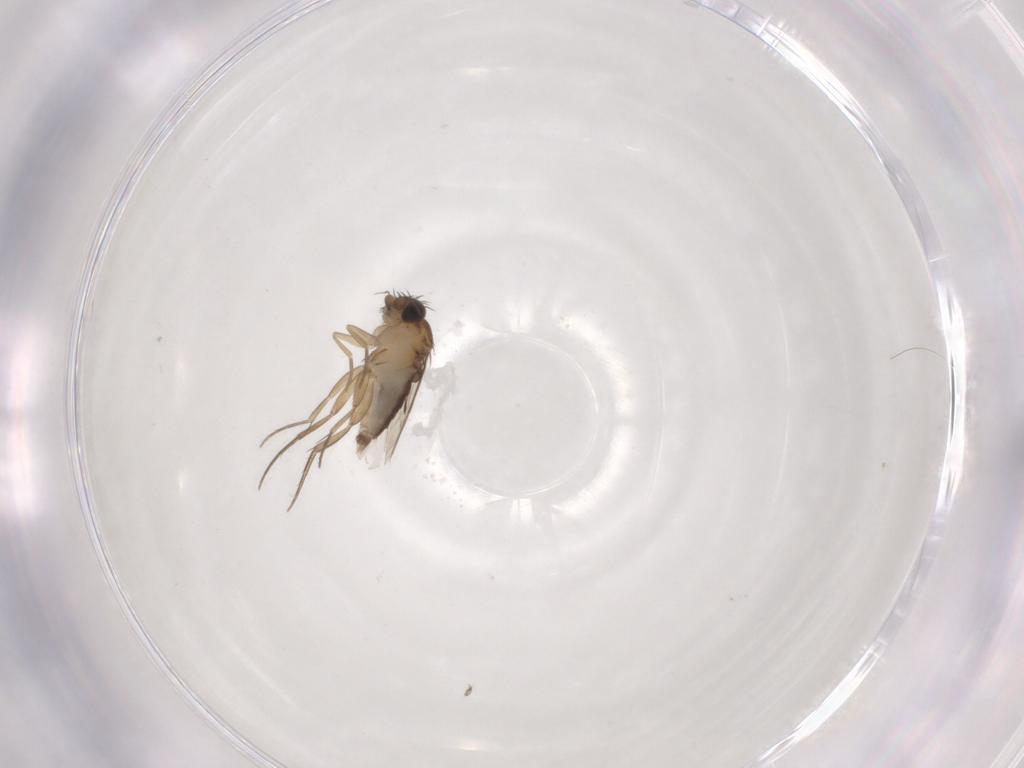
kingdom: Animalia
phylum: Arthropoda
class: Insecta
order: Diptera
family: Phoridae
